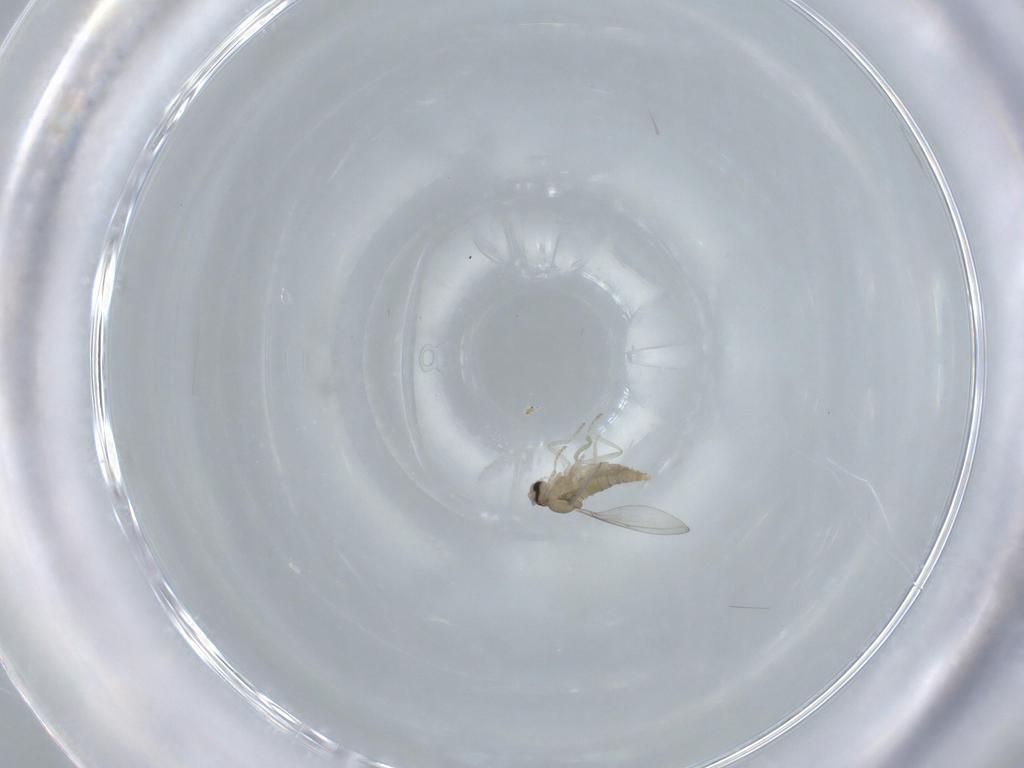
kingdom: Animalia
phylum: Arthropoda
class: Insecta
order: Diptera
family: Cecidomyiidae
